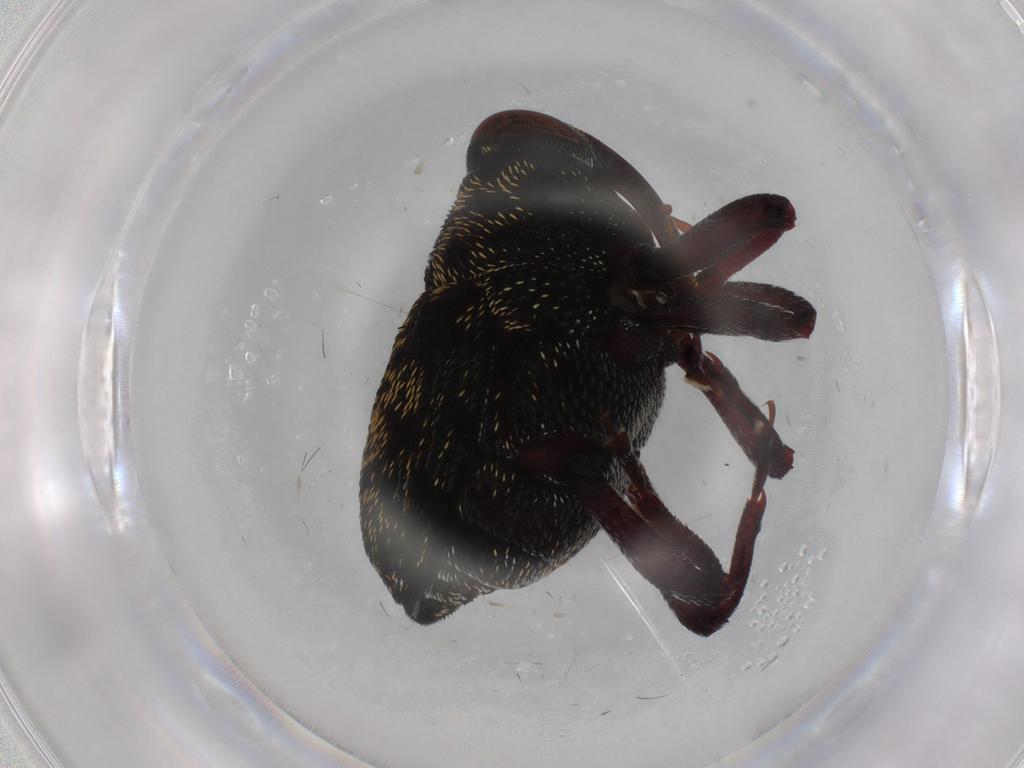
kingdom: Animalia
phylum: Arthropoda
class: Insecta
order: Coleoptera
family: Curculionidae
